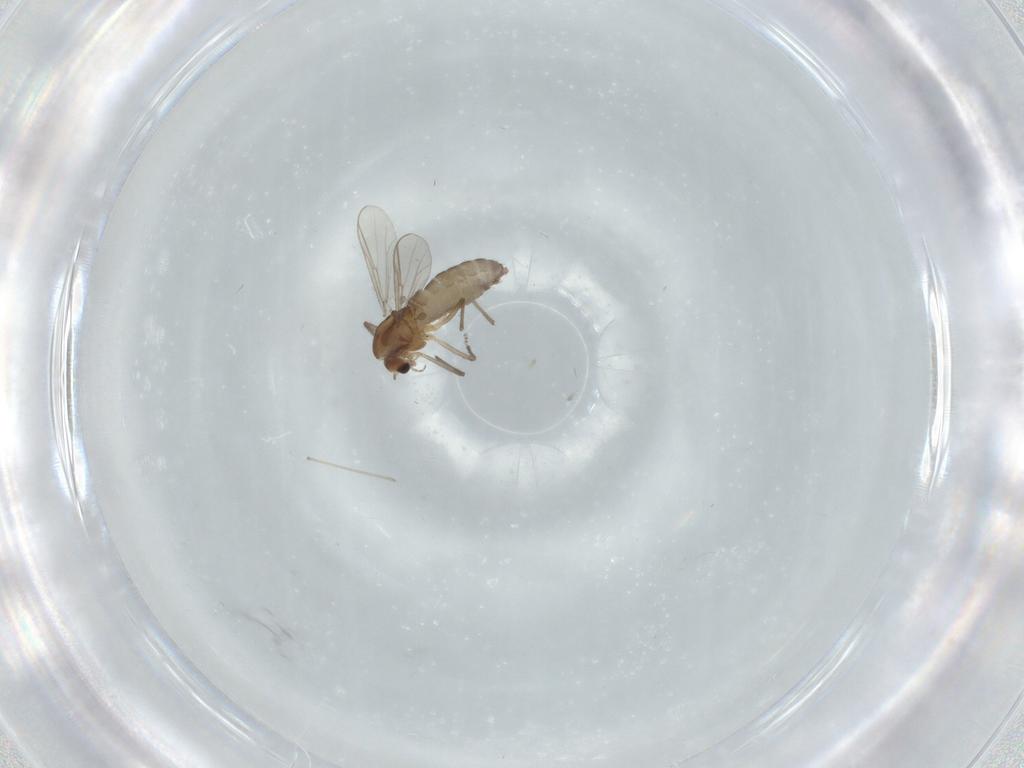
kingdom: Animalia
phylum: Arthropoda
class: Insecta
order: Diptera
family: Chironomidae
